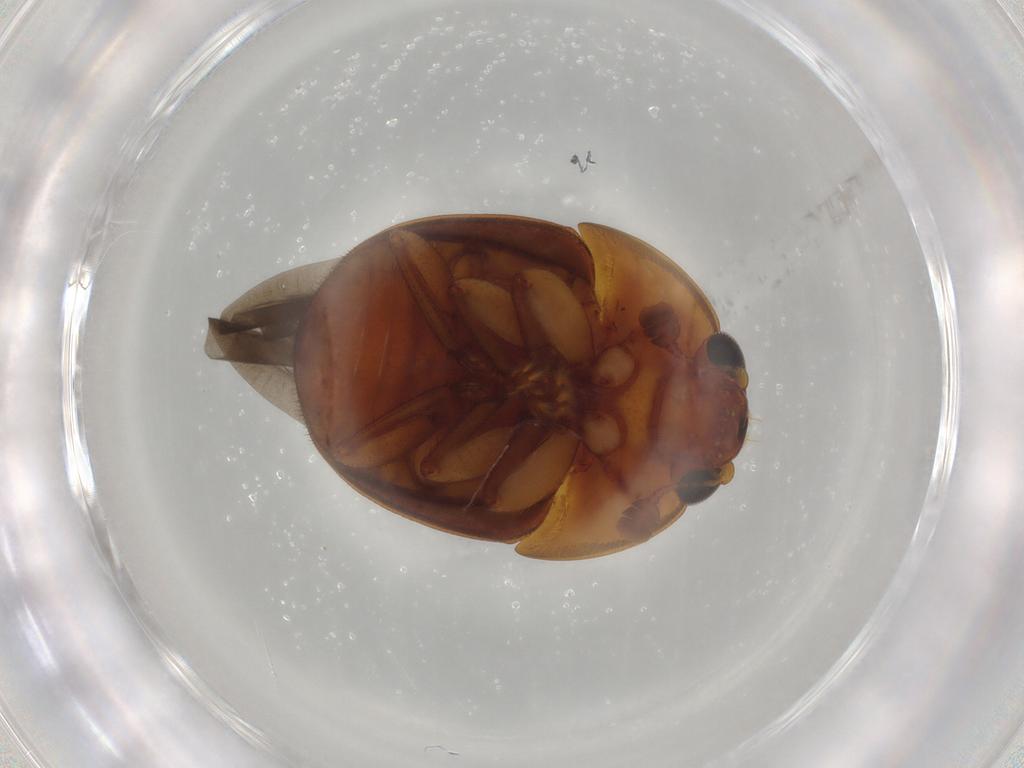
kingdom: Animalia
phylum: Arthropoda
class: Insecta
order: Coleoptera
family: Nitidulidae
